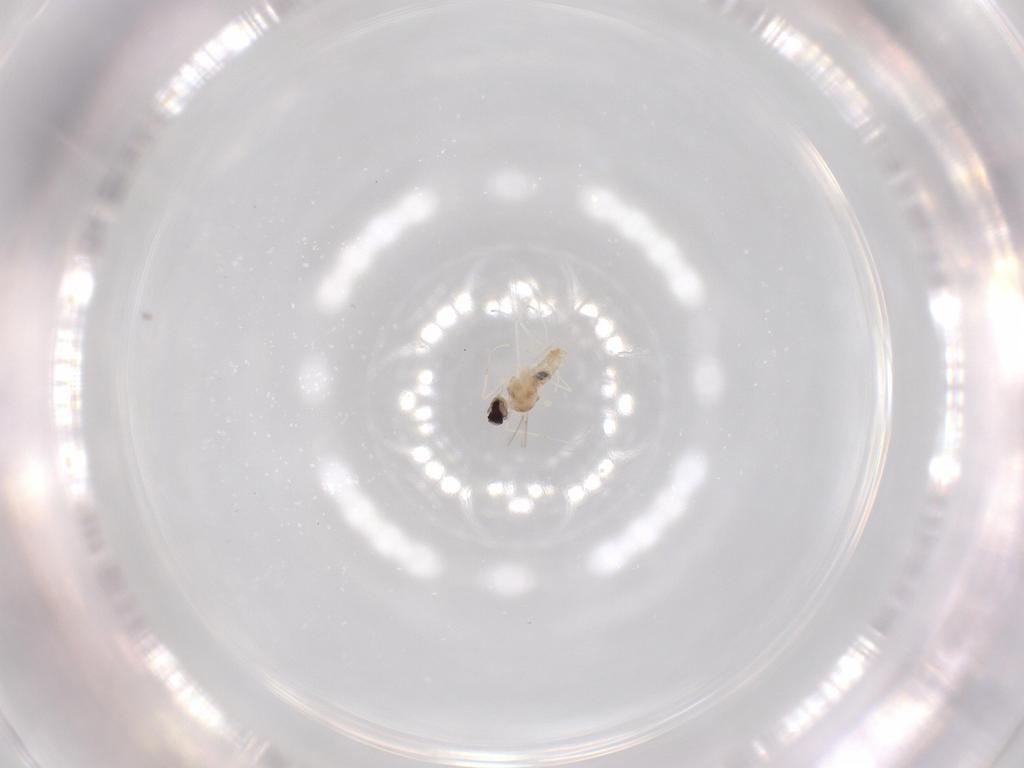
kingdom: Animalia
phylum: Arthropoda
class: Insecta
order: Diptera
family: Cecidomyiidae
